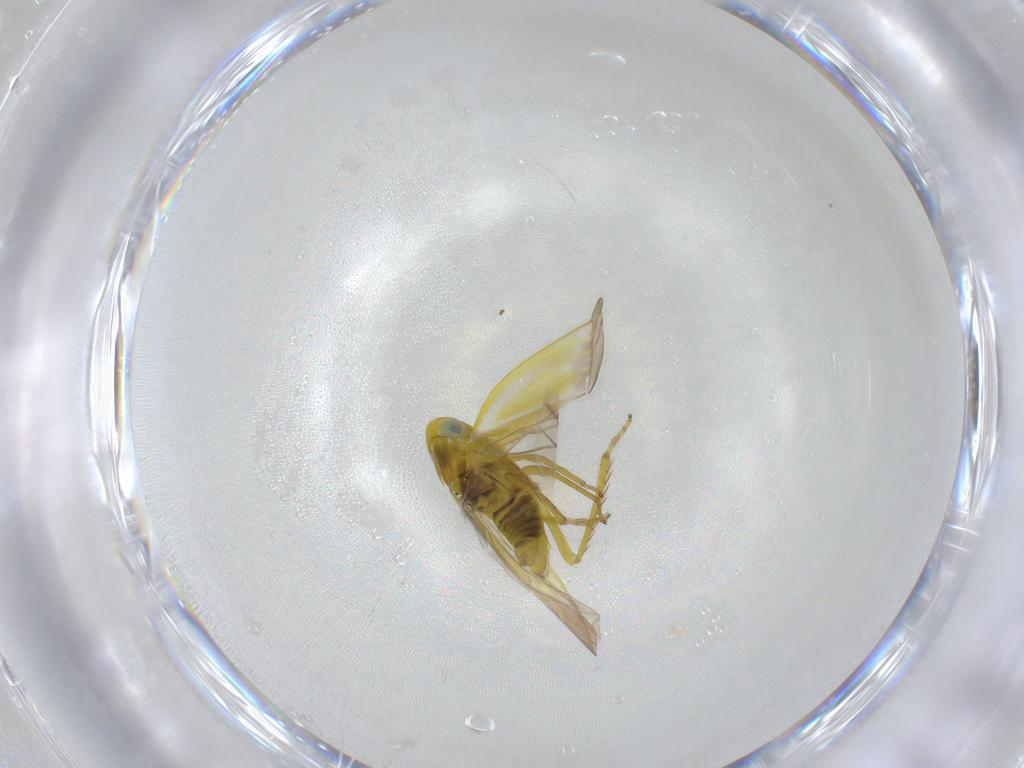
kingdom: Animalia
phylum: Arthropoda
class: Insecta
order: Hemiptera
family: Cicadellidae
